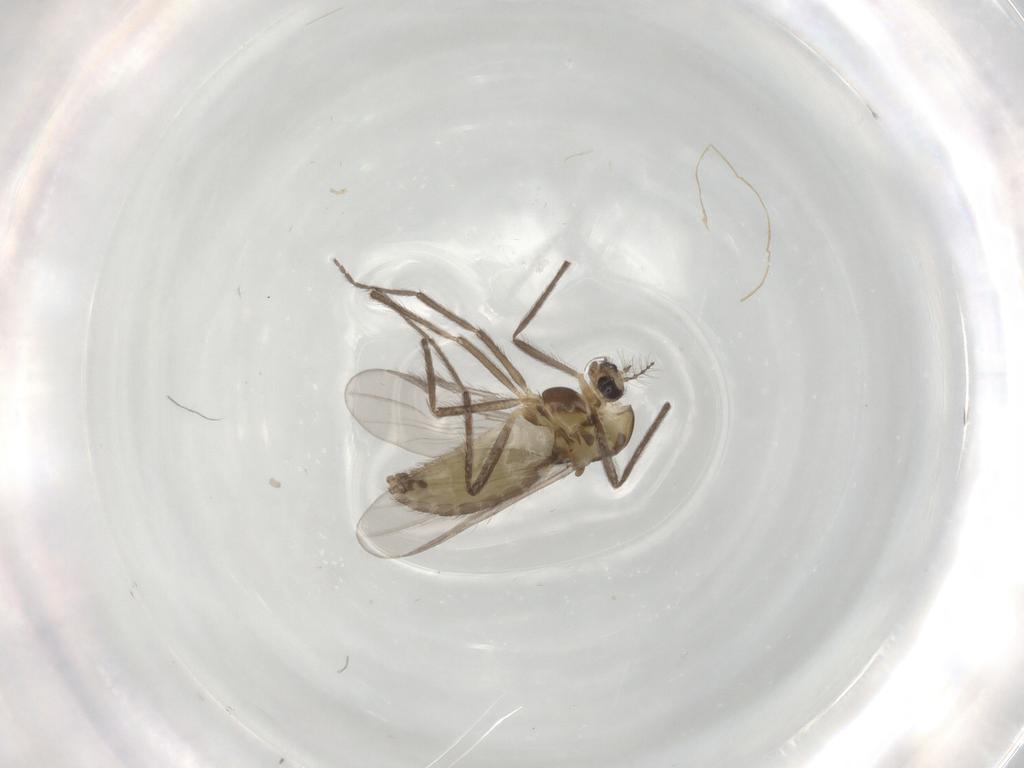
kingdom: Animalia
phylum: Arthropoda
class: Insecta
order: Diptera
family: Chironomidae
